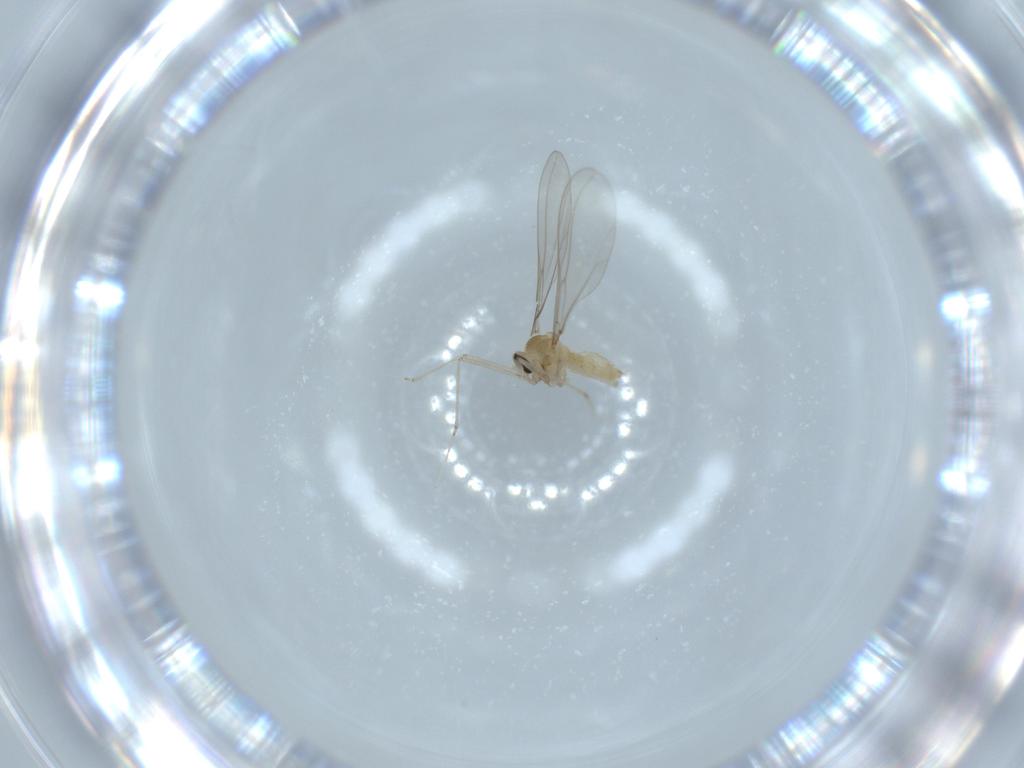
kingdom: Animalia
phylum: Arthropoda
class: Insecta
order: Diptera
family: Cecidomyiidae
